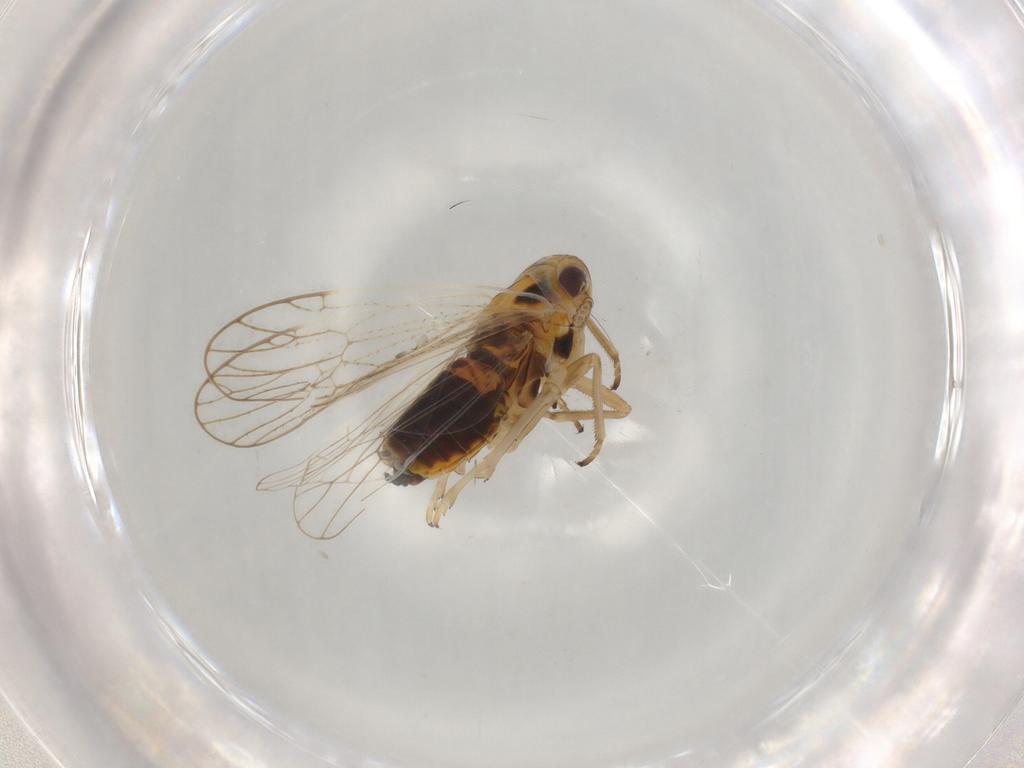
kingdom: Animalia
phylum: Arthropoda
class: Insecta
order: Hemiptera
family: Delphacidae
